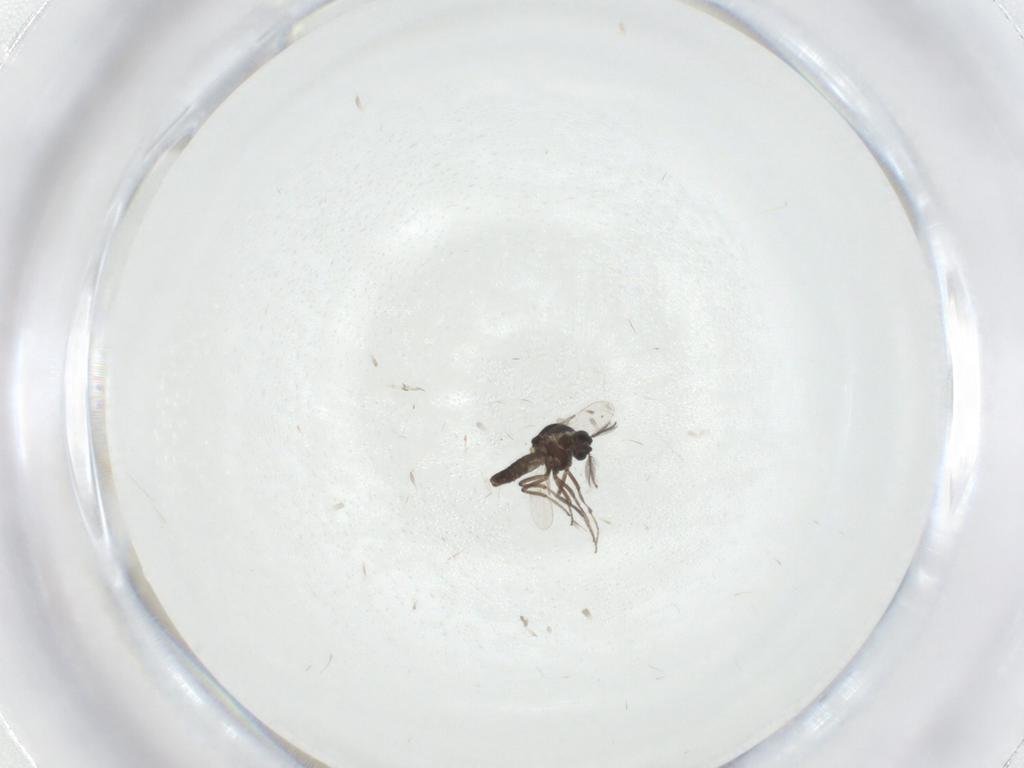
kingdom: Animalia
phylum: Arthropoda
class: Insecta
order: Diptera
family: Ceratopogonidae
